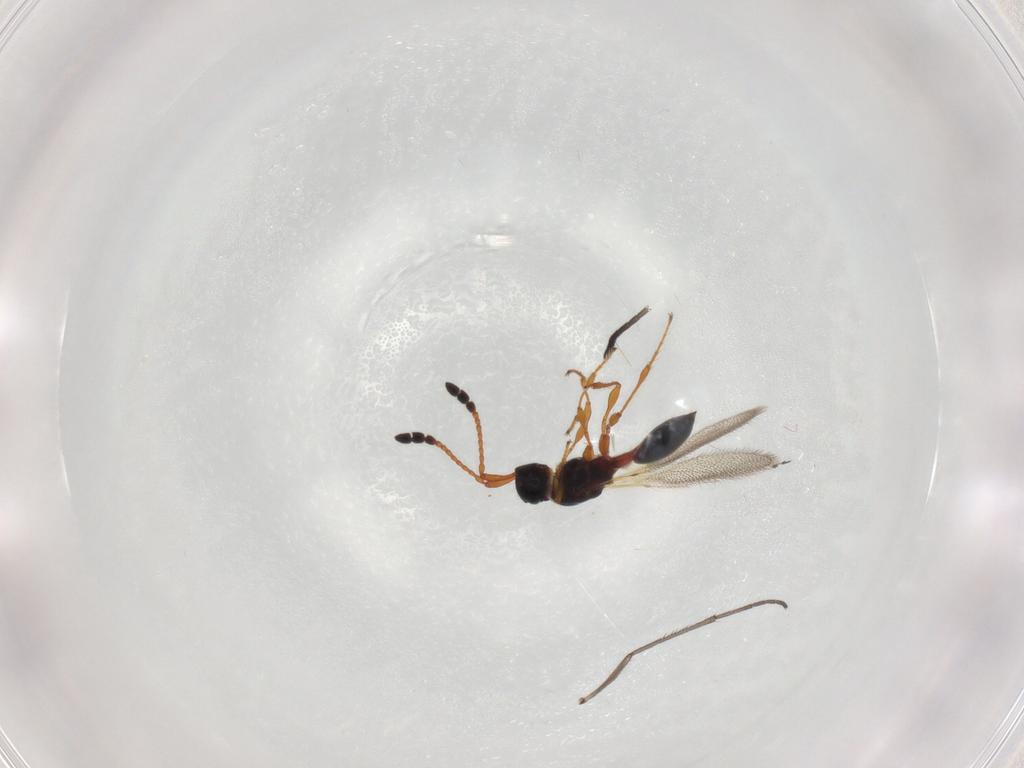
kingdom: Animalia
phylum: Arthropoda
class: Insecta
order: Hymenoptera
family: Diapriidae
